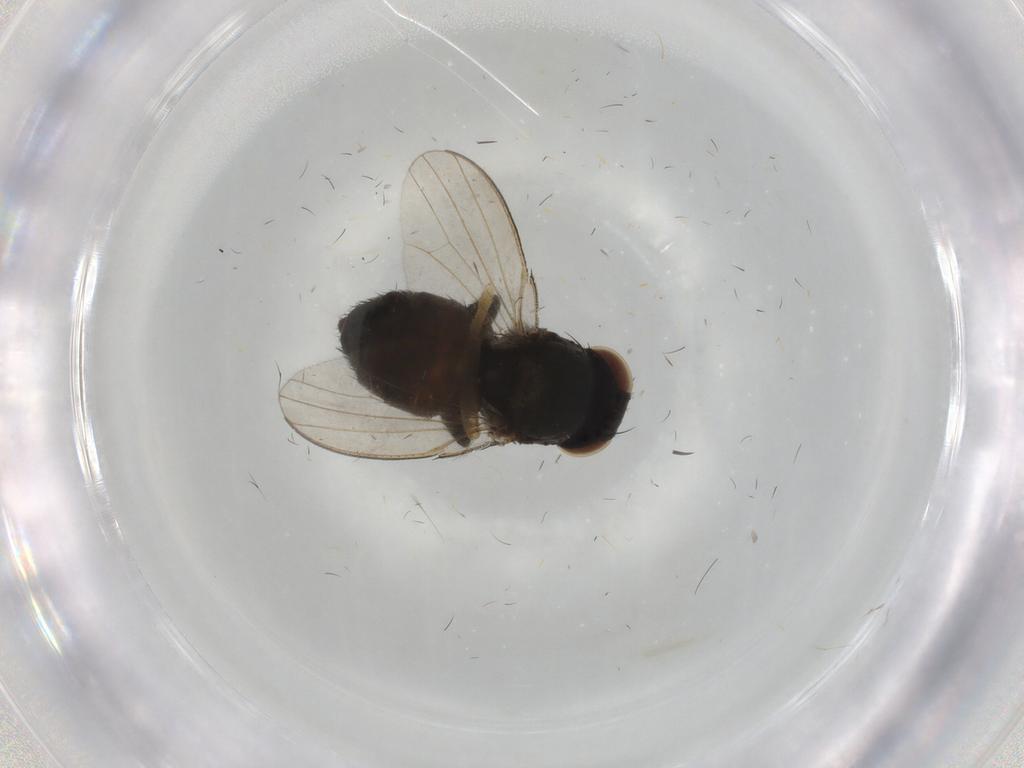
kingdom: Animalia
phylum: Arthropoda
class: Insecta
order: Diptera
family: Milichiidae
